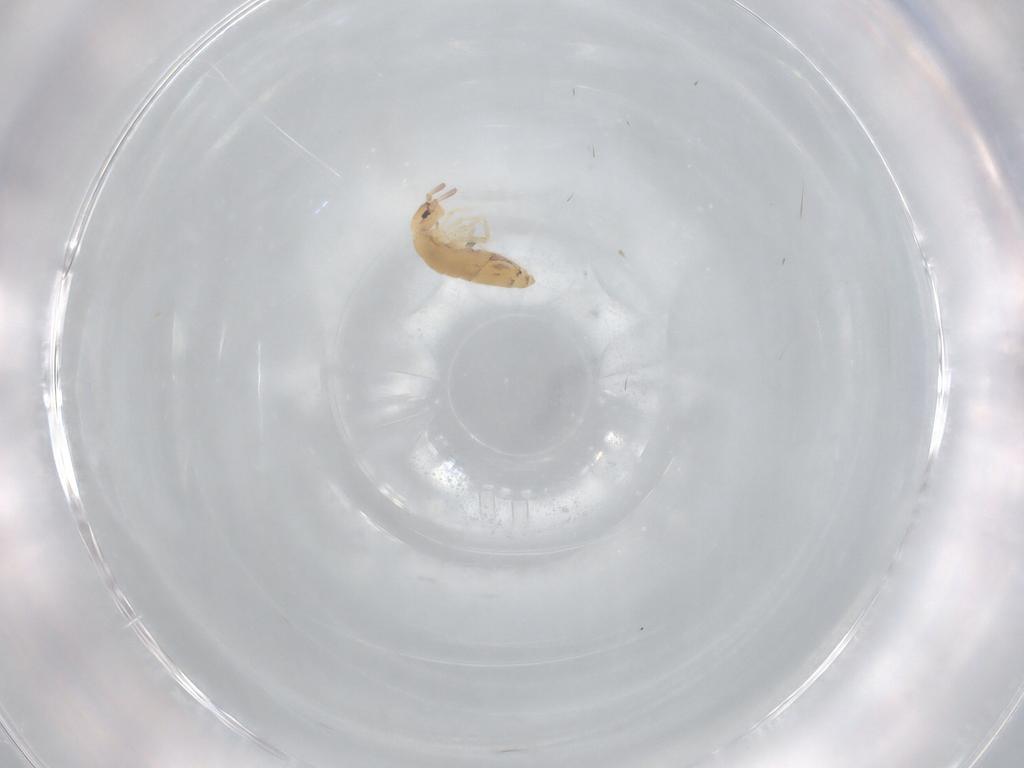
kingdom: Animalia
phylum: Arthropoda
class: Collembola
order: Entomobryomorpha
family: Entomobryidae
